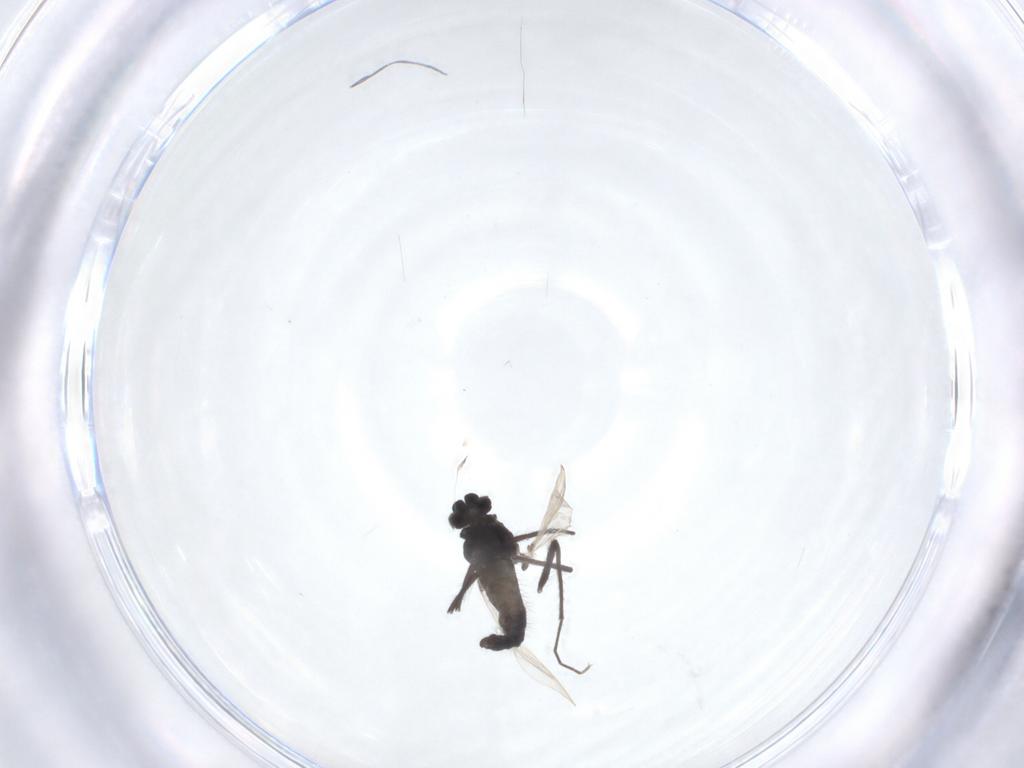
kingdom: Animalia
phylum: Arthropoda
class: Insecta
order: Diptera
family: Chironomidae
